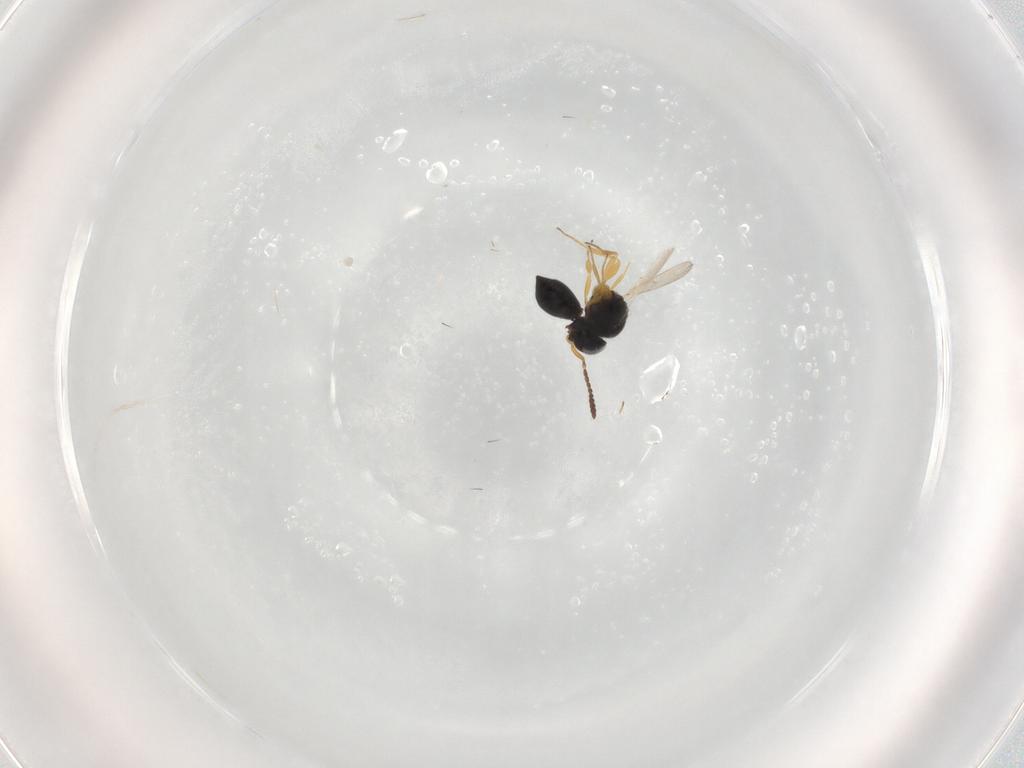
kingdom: Animalia
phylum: Arthropoda
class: Insecta
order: Hymenoptera
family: Scelionidae
